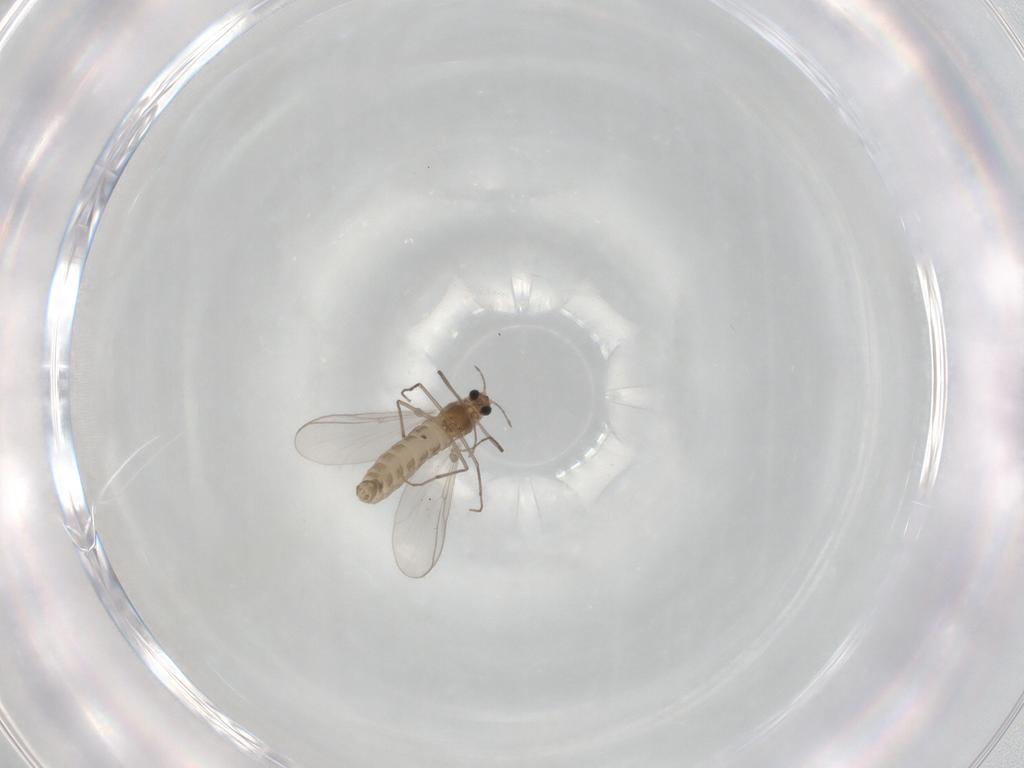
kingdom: Animalia
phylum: Arthropoda
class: Insecta
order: Diptera
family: Chironomidae
